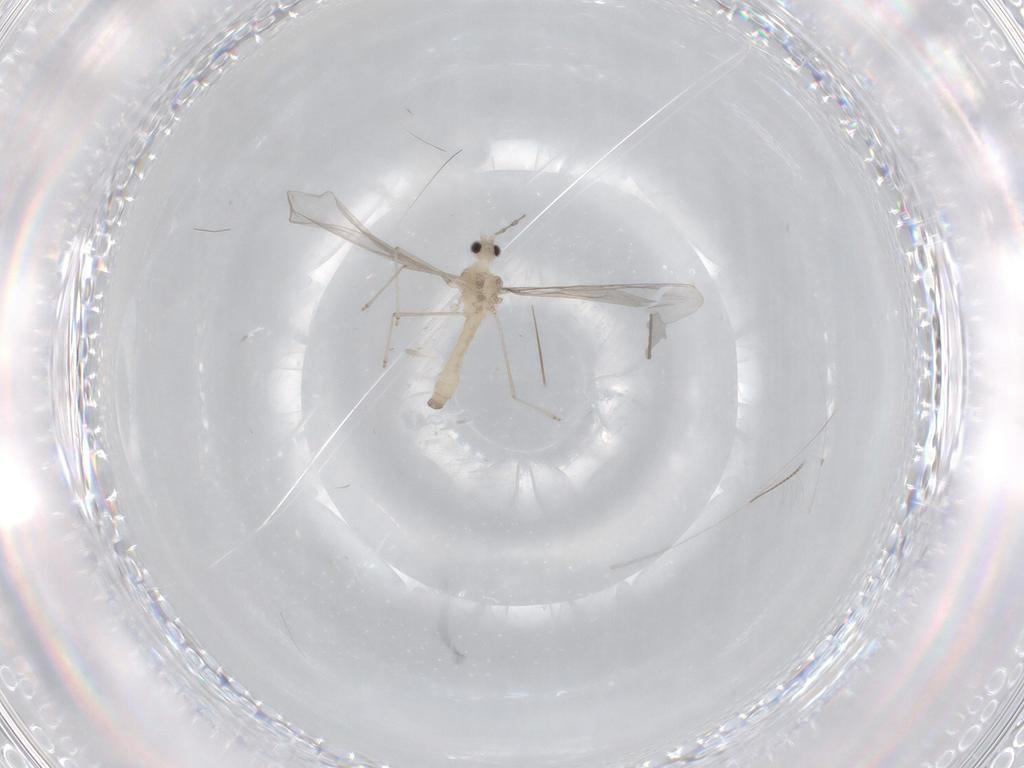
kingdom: Animalia
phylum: Arthropoda
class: Insecta
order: Diptera
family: Cecidomyiidae
